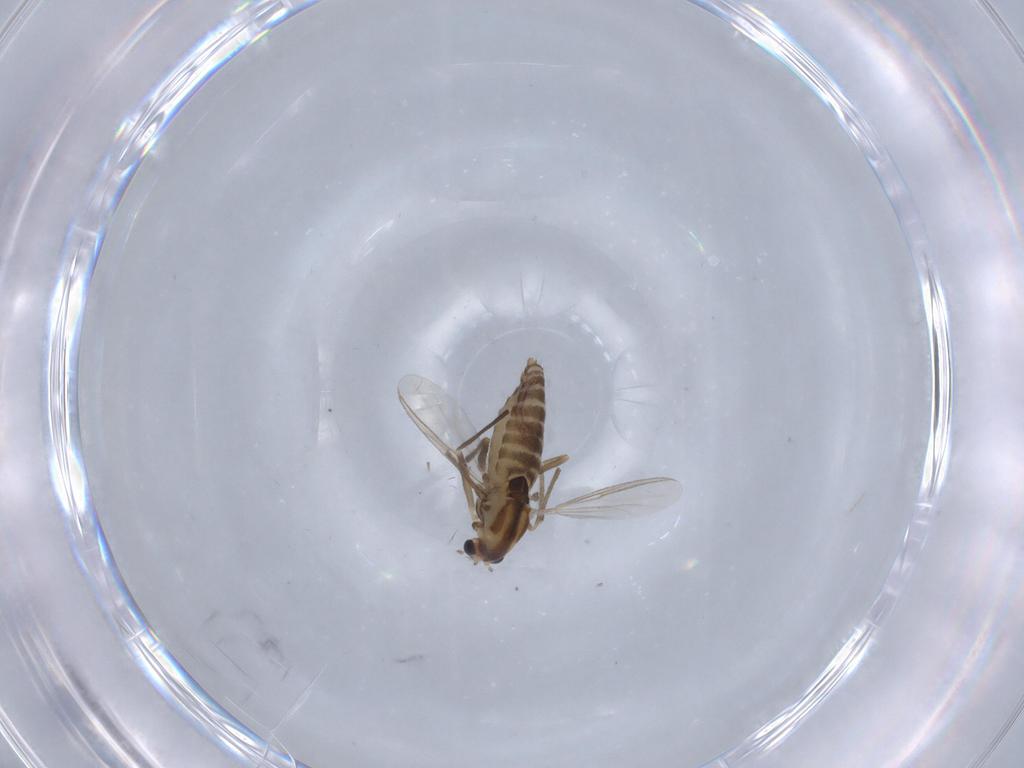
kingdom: Animalia
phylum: Arthropoda
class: Insecta
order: Diptera
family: Chironomidae
